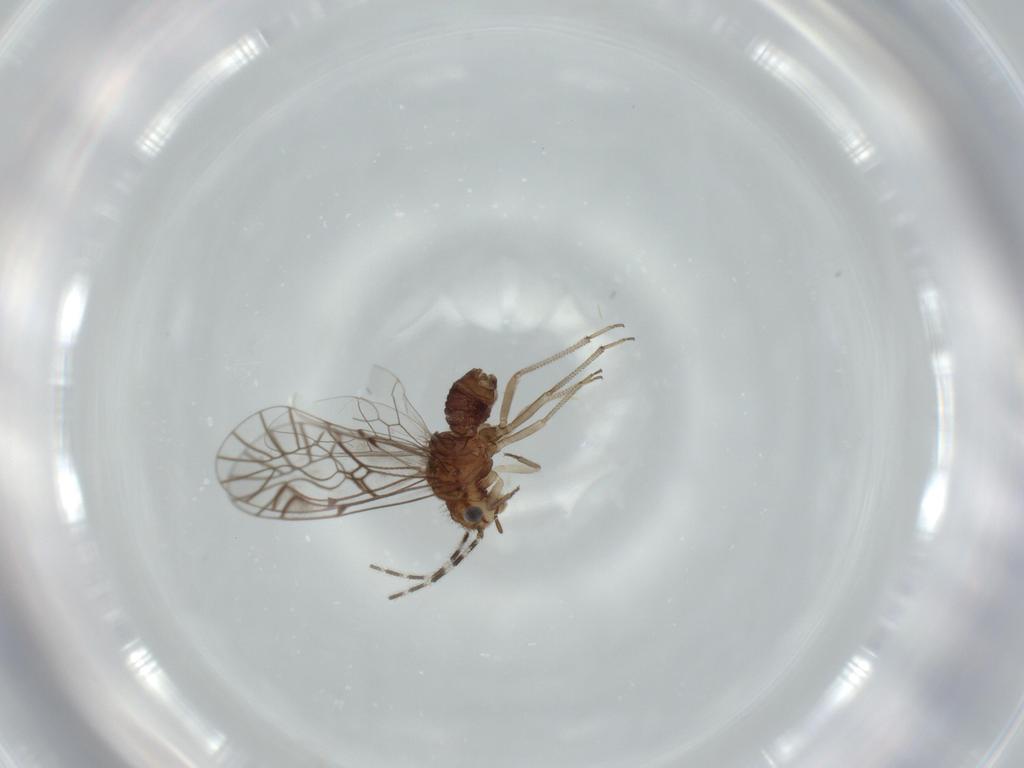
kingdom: Animalia
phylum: Arthropoda
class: Insecta
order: Psocodea
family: Amphipsocidae
